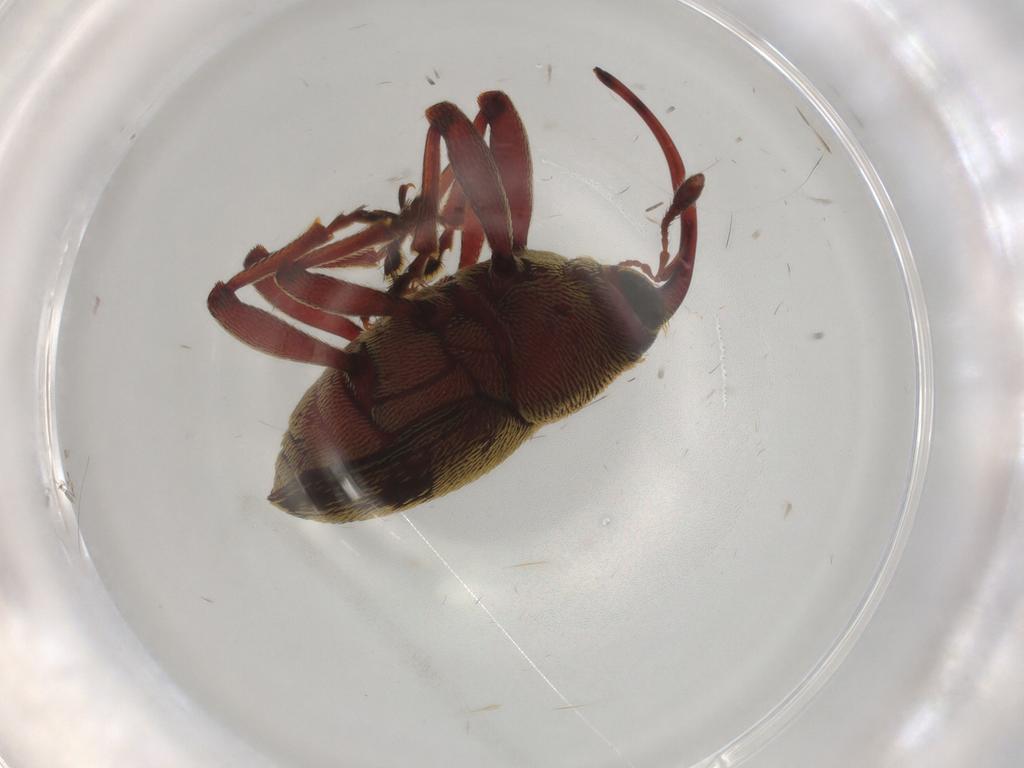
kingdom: Animalia
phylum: Arthropoda
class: Insecta
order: Coleoptera
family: Curculionidae
